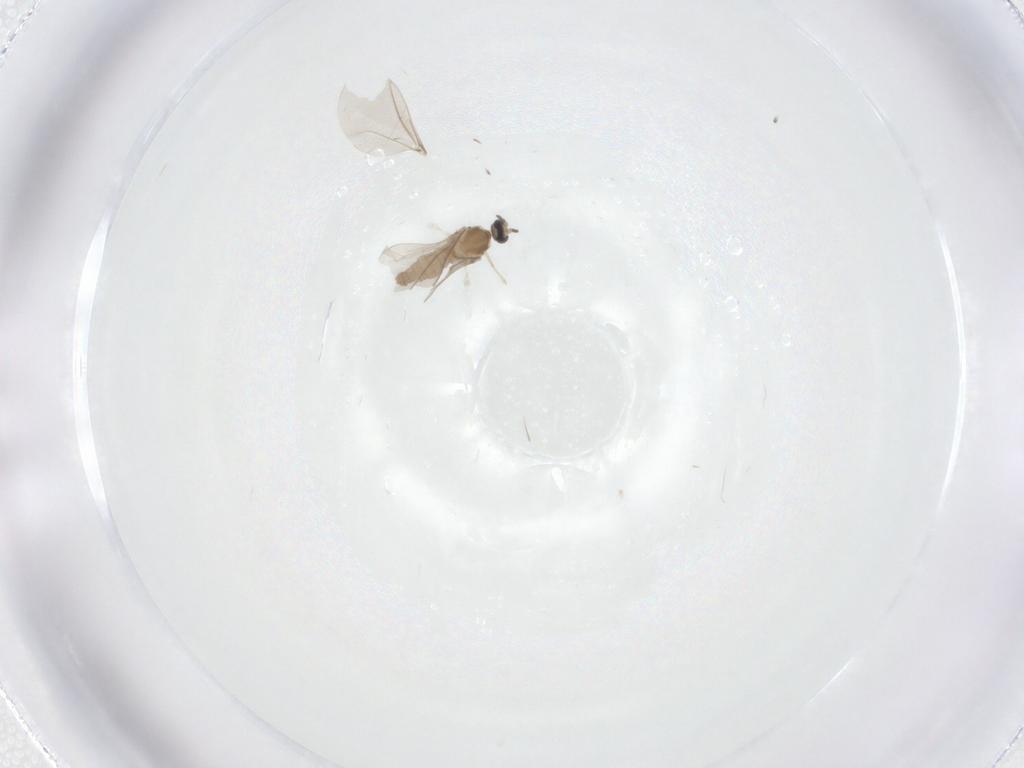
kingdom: Animalia
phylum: Arthropoda
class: Insecta
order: Diptera
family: Cecidomyiidae
